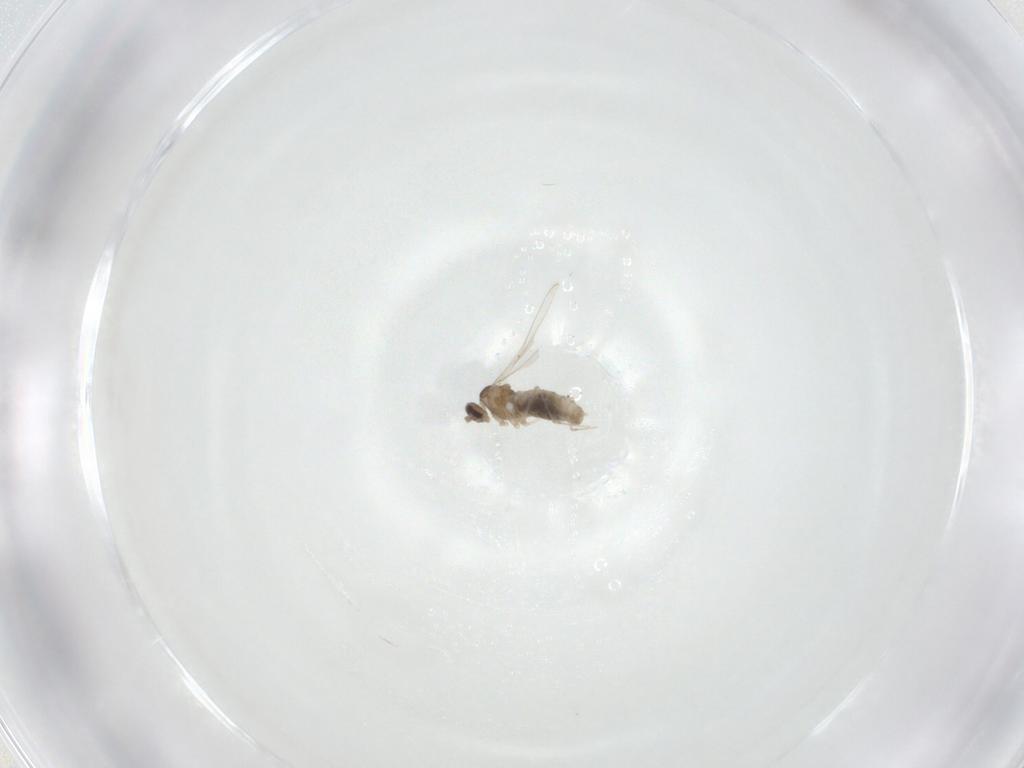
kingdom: Animalia
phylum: Arthropoda
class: Insecta
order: Diptera
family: Cecidomyiidae
